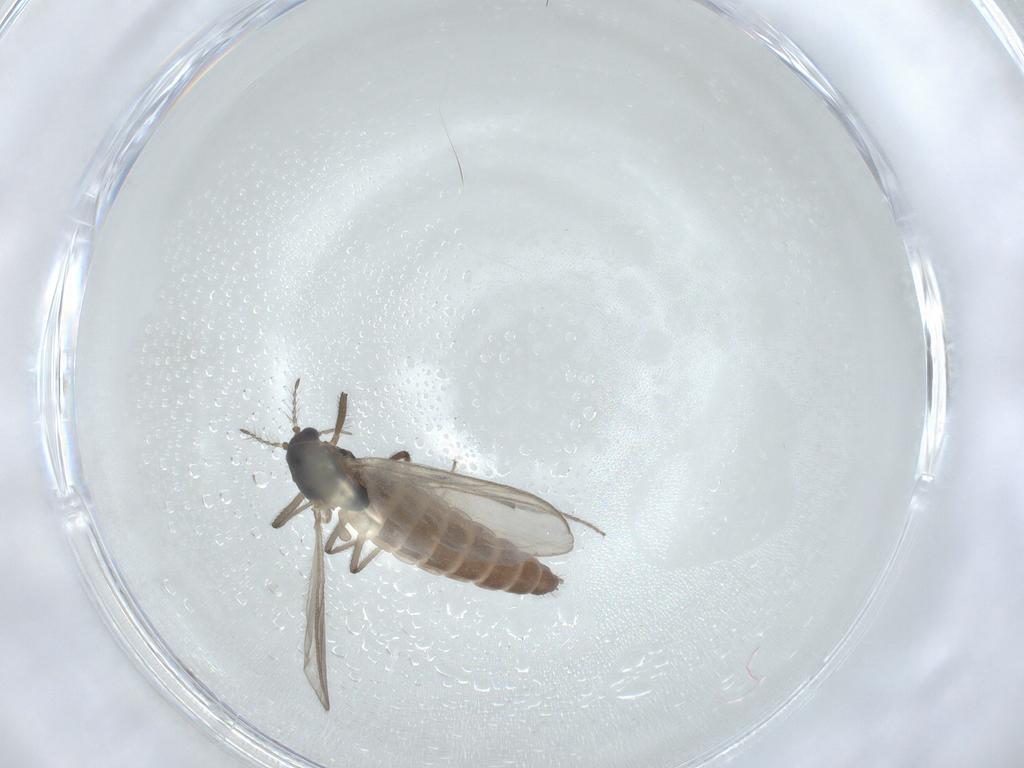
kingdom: Animalia
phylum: Arthropoda
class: Insecta
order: Diptera
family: Chironomidae
